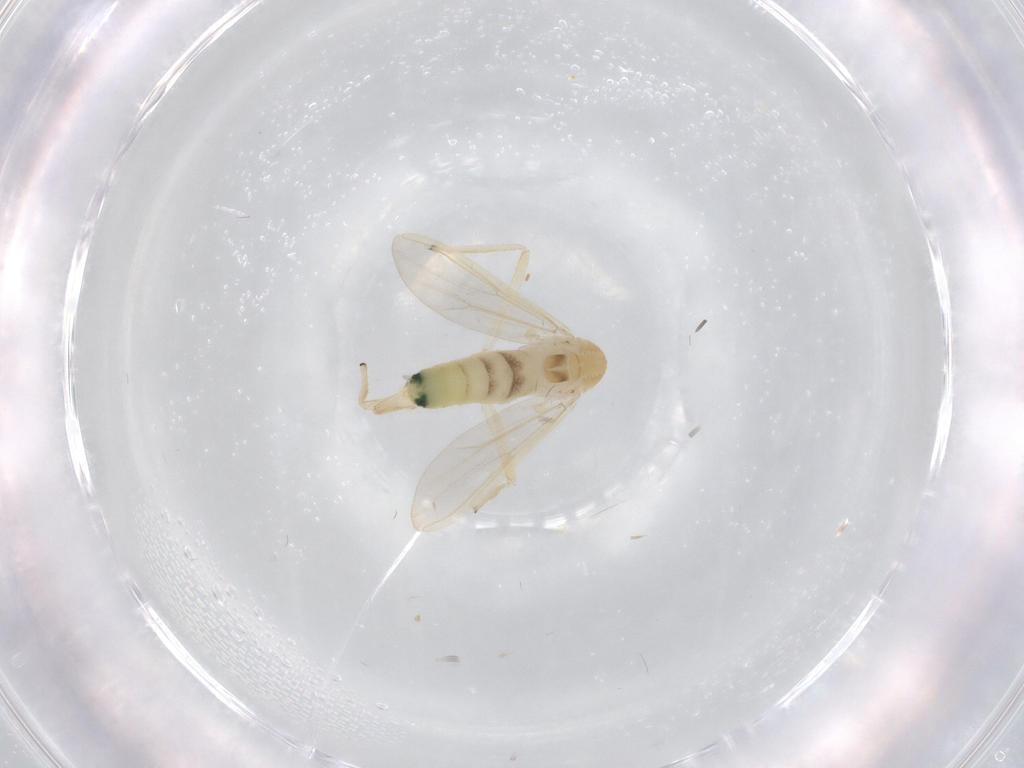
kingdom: Animalia
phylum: Arthropoda
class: Insecta
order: Diptera
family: Chironomidae
